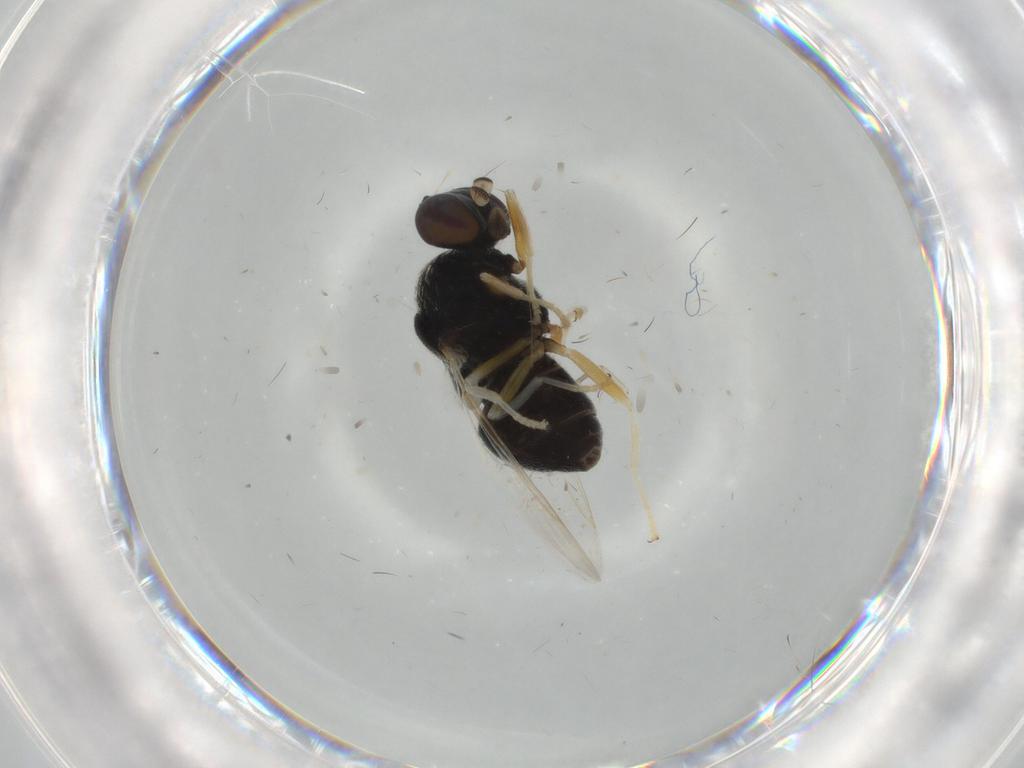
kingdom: Animalia
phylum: Arthropoda
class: Insecta
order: Diptera
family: Stratiomyidae
